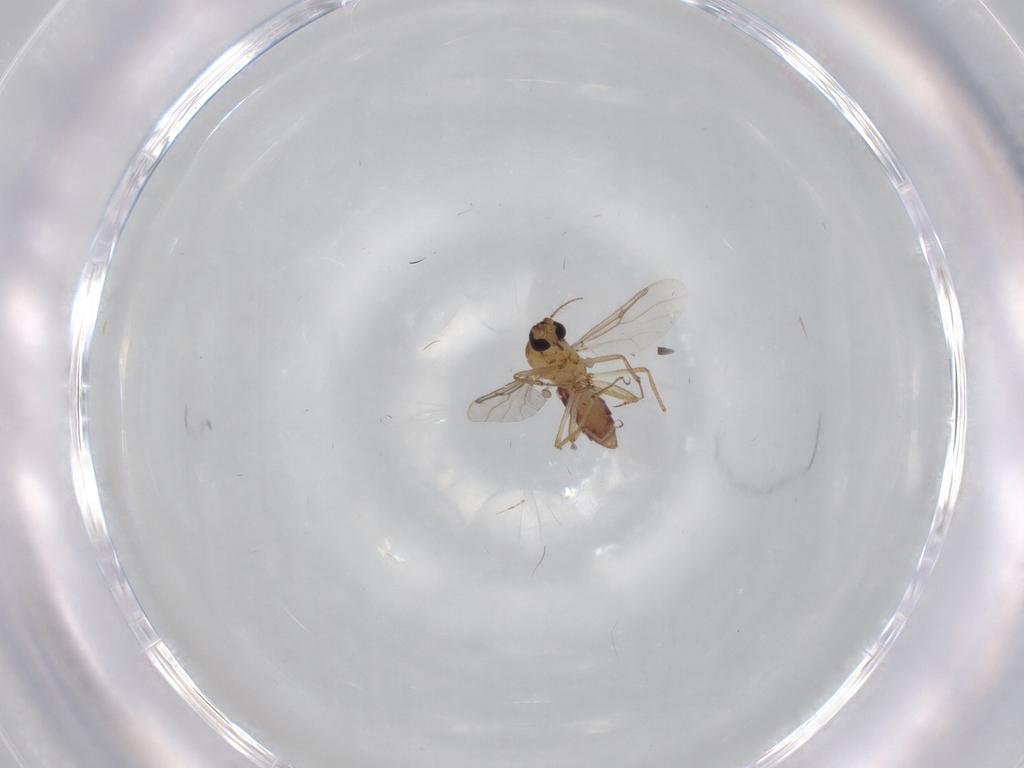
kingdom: Animalia
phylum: Arthropoda
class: Insecta
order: Diptera
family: Ceratopogonidae
